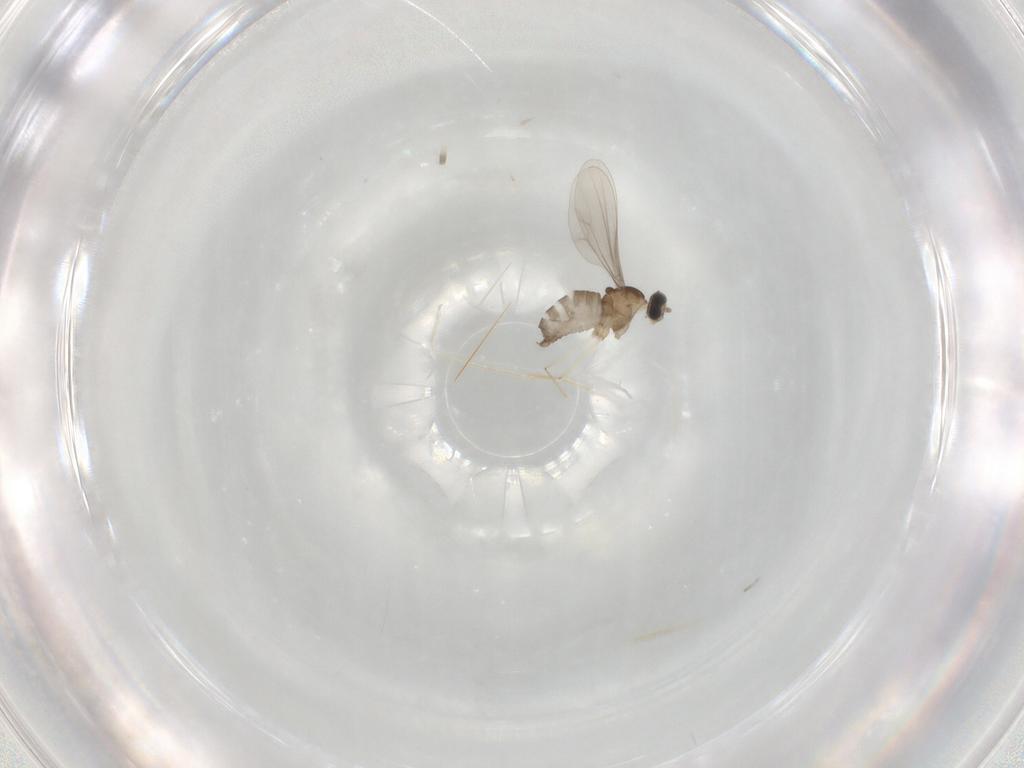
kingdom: Animalia
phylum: Arthropoda
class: Insecta
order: Diptera
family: Cecidomyiidae
